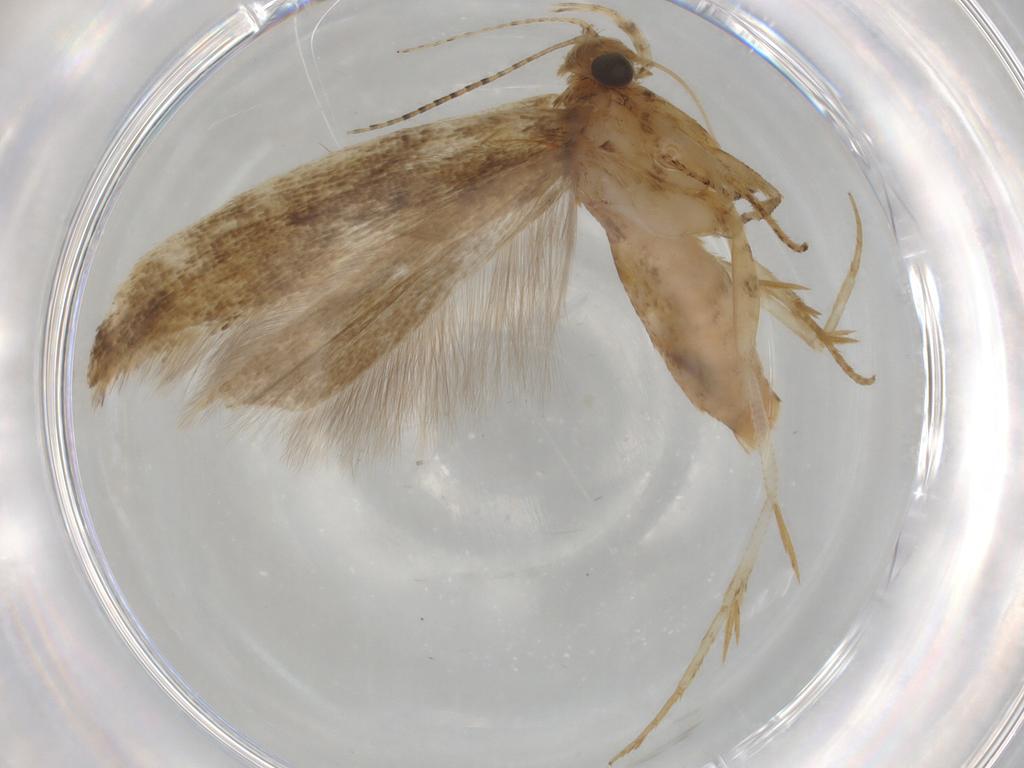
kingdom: Animalia
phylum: Arthropoda
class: Insecta
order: Lepidoptera
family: Gelechiidae
